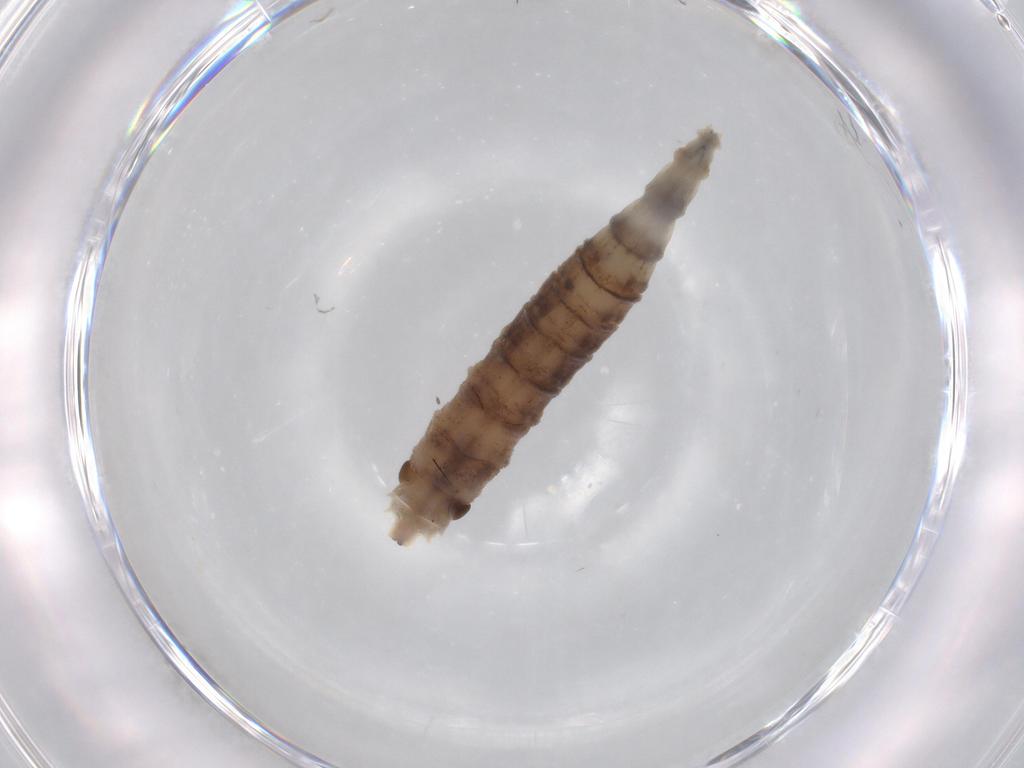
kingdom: Animalia
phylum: Arthropoda
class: Insecta
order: Diptera
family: Drosophilidae
